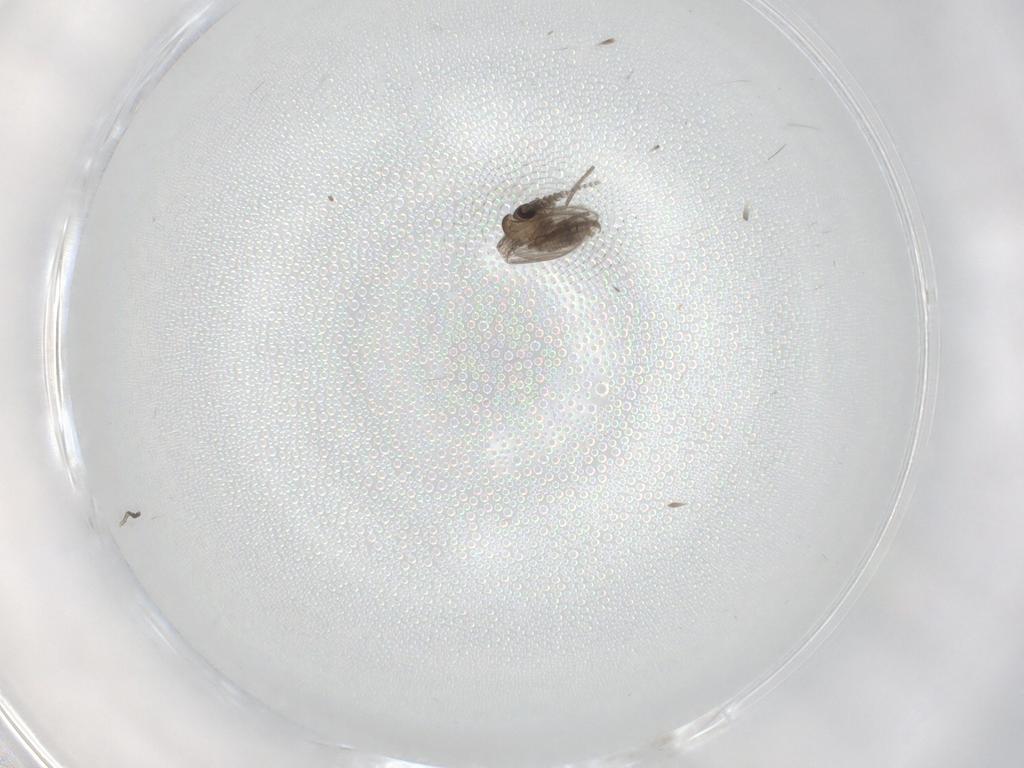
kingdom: Animalia
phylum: Arthropoda
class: Insecta
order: Diptera
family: Psychodidae
